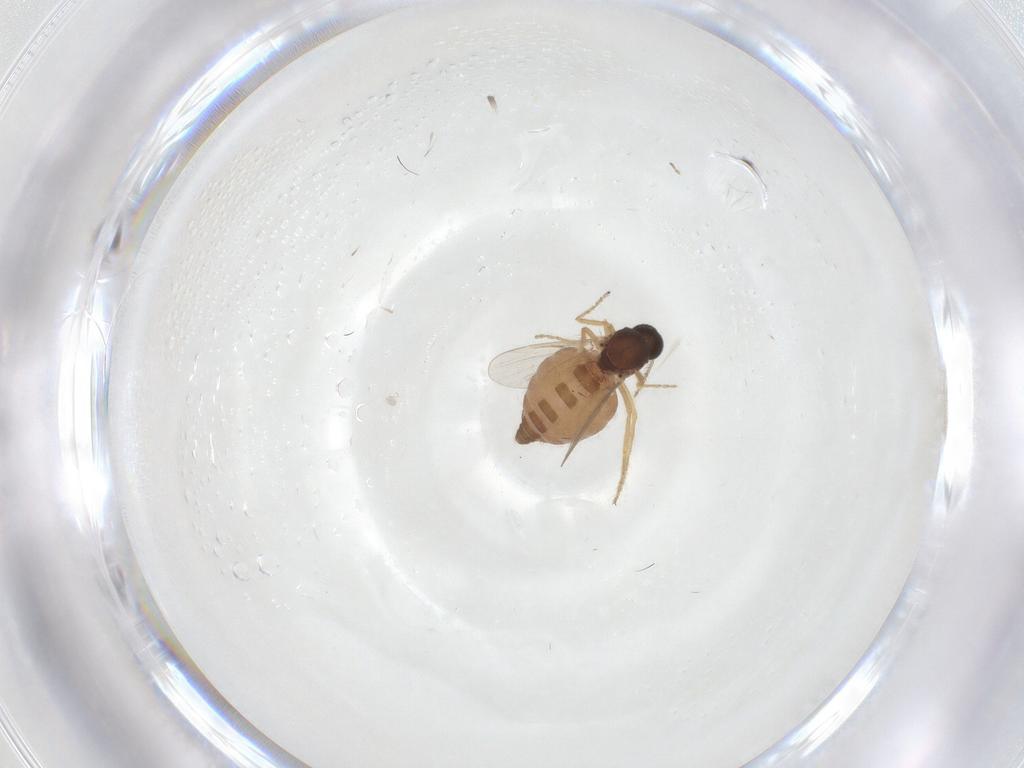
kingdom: Animalia
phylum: Arthropoda
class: Insecta
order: Diptera
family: Ceratopogonidae
